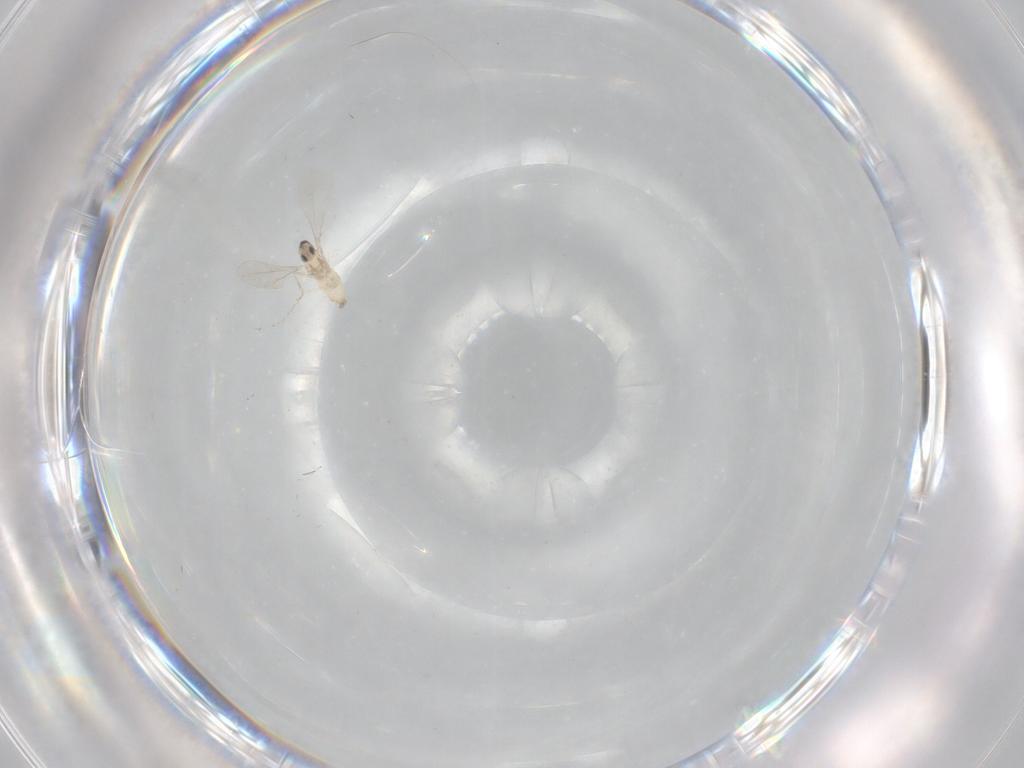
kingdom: Animalia
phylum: Arthropoda
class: Insecta
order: Diptera
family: Cecidomyiidae
